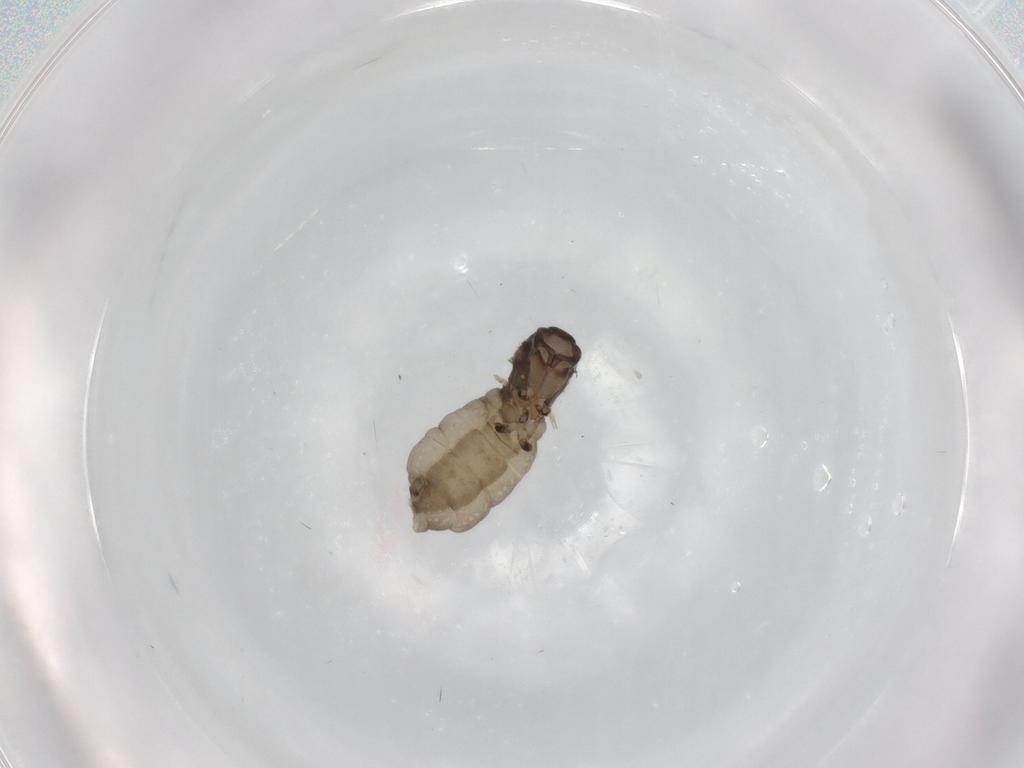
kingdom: Animalia
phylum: Arthropoda
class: Insecta
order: Diptera
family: Sciaridae
